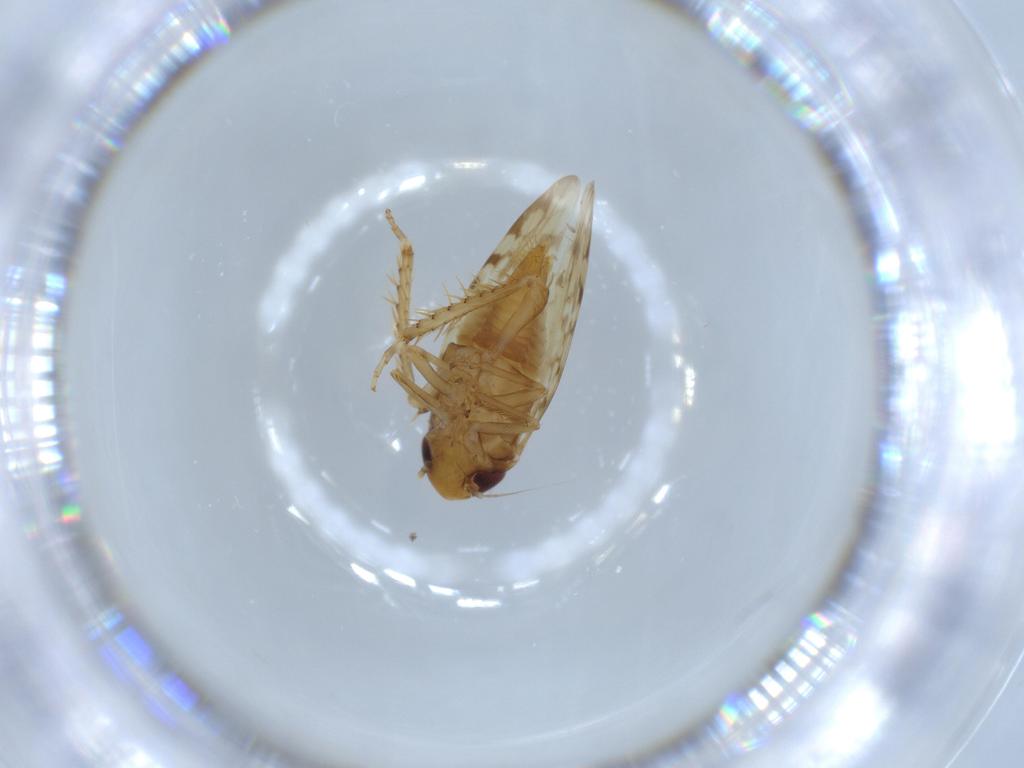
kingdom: Animalia
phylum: Arthropoda
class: Insecta
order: Hemiptera
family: Cicadellidae
